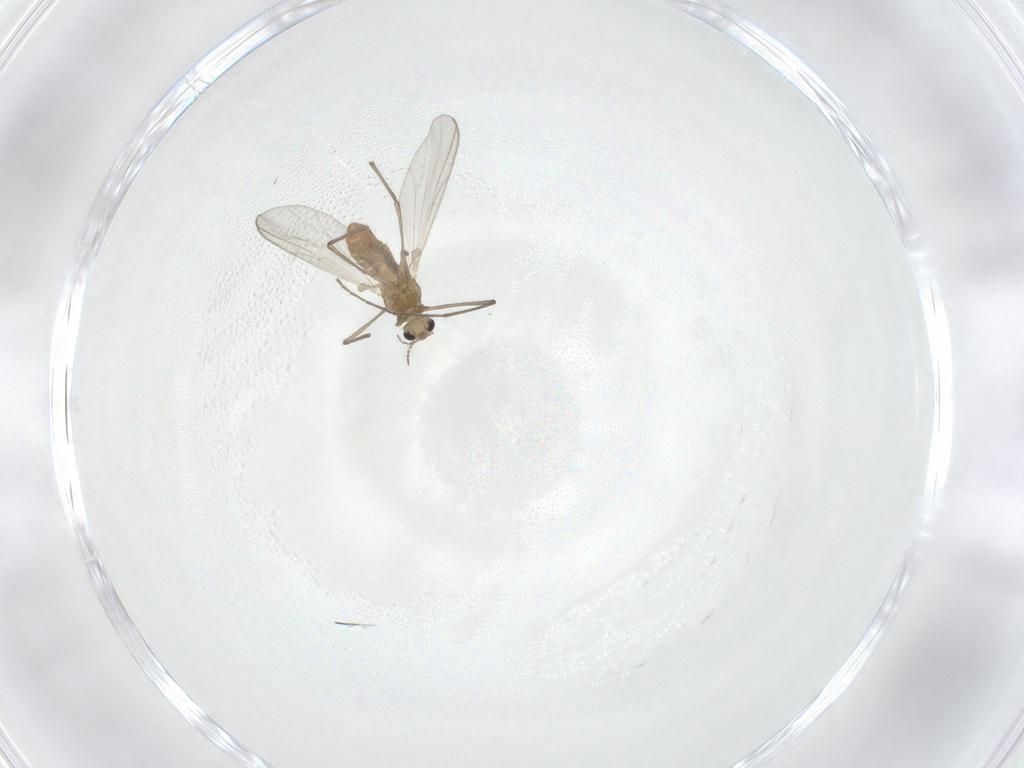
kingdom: Animalia
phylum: Arthropoda
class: Insecta
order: Diptera
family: Chironomidae
